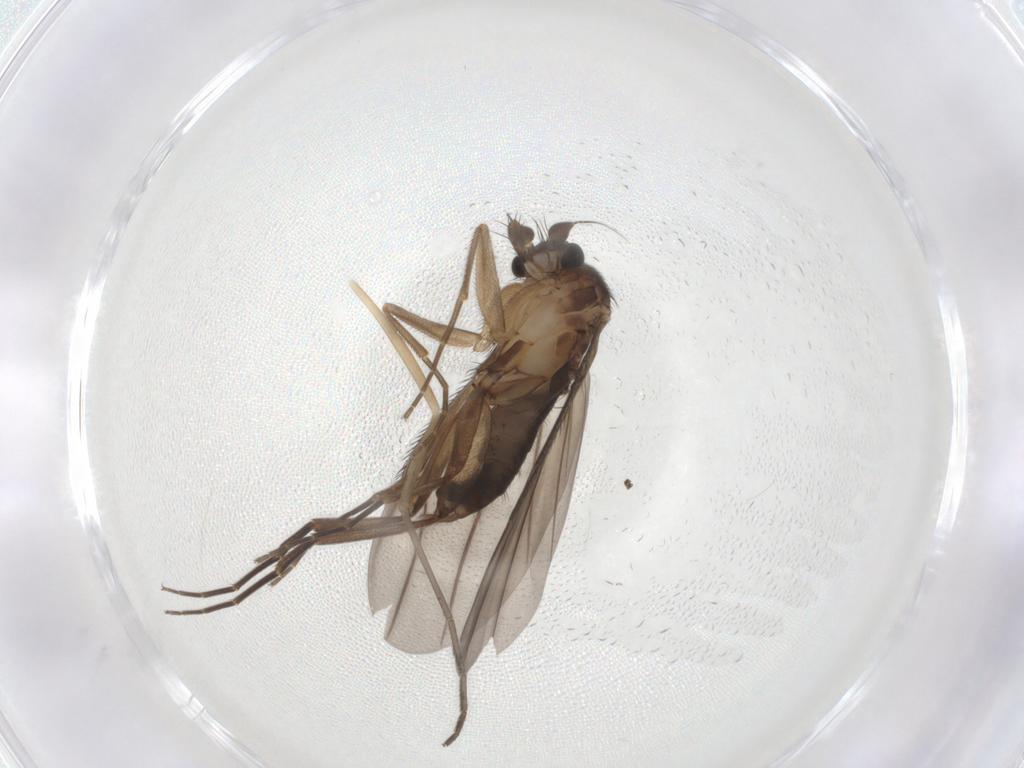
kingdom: Animalia
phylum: Arthropoda
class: Insecta
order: Diptera
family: Phoridae
